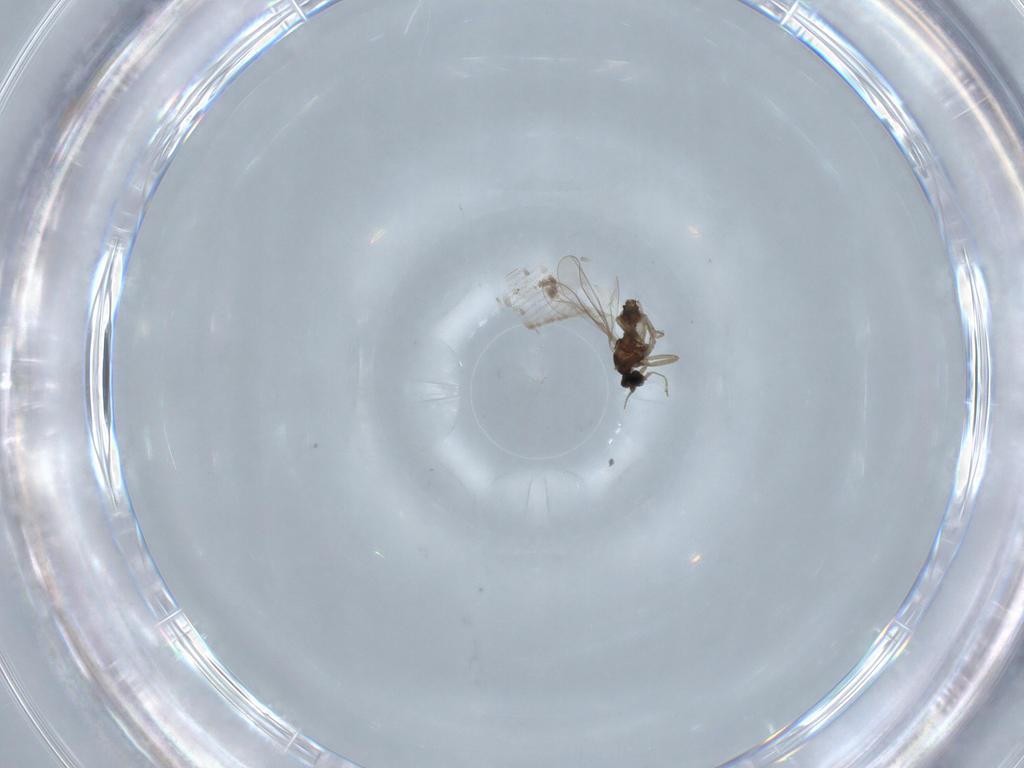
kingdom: Animalia
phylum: Arthropoda
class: Insecta
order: Diptera
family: Cecidomyiidae
